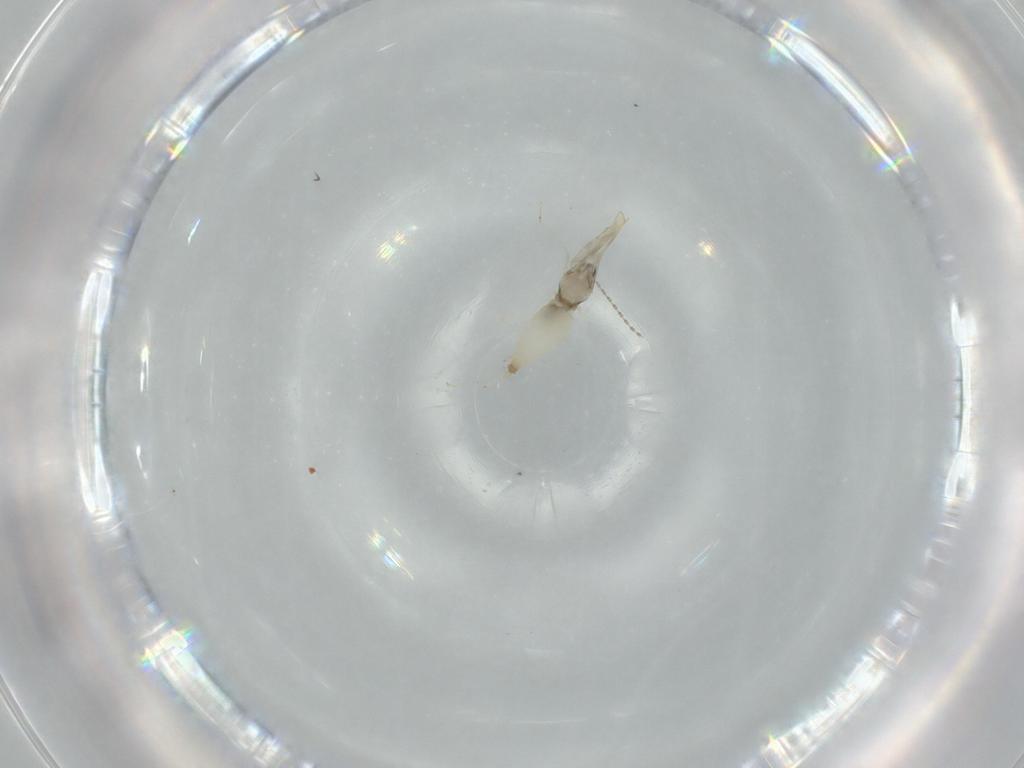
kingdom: Animalia
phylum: Arthropoda
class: Insecta
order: Diptera
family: Cecidomyiidae
